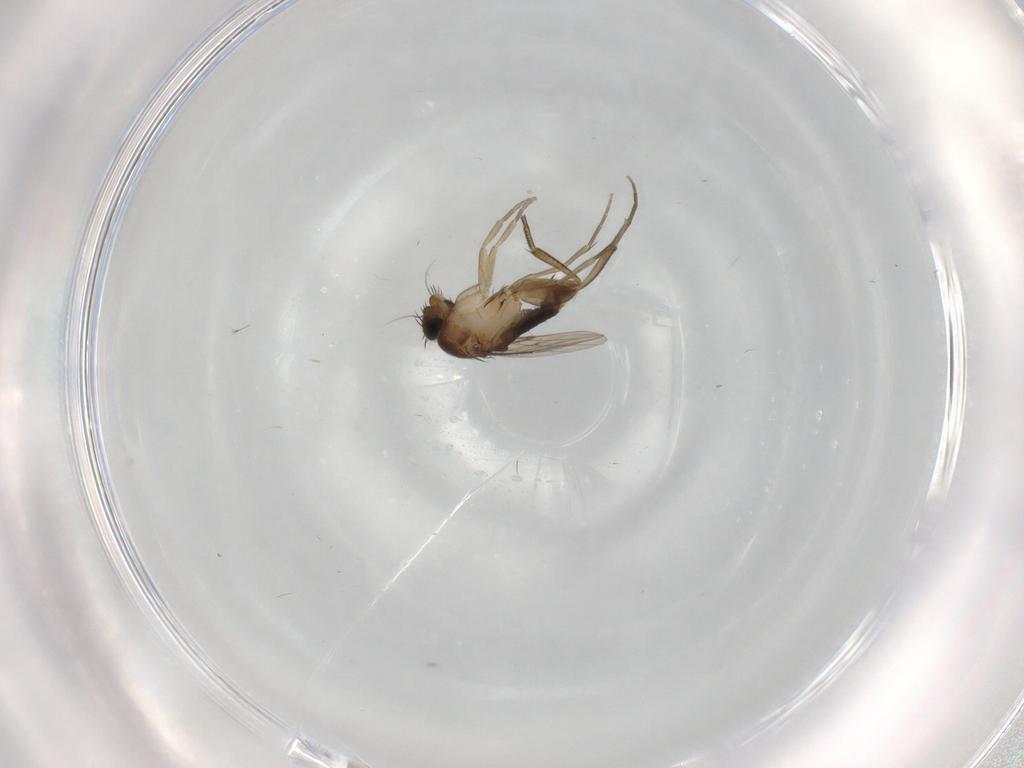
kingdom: Animalia
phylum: Arthropoda
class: Insecta
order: Diptera
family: Phoridae
